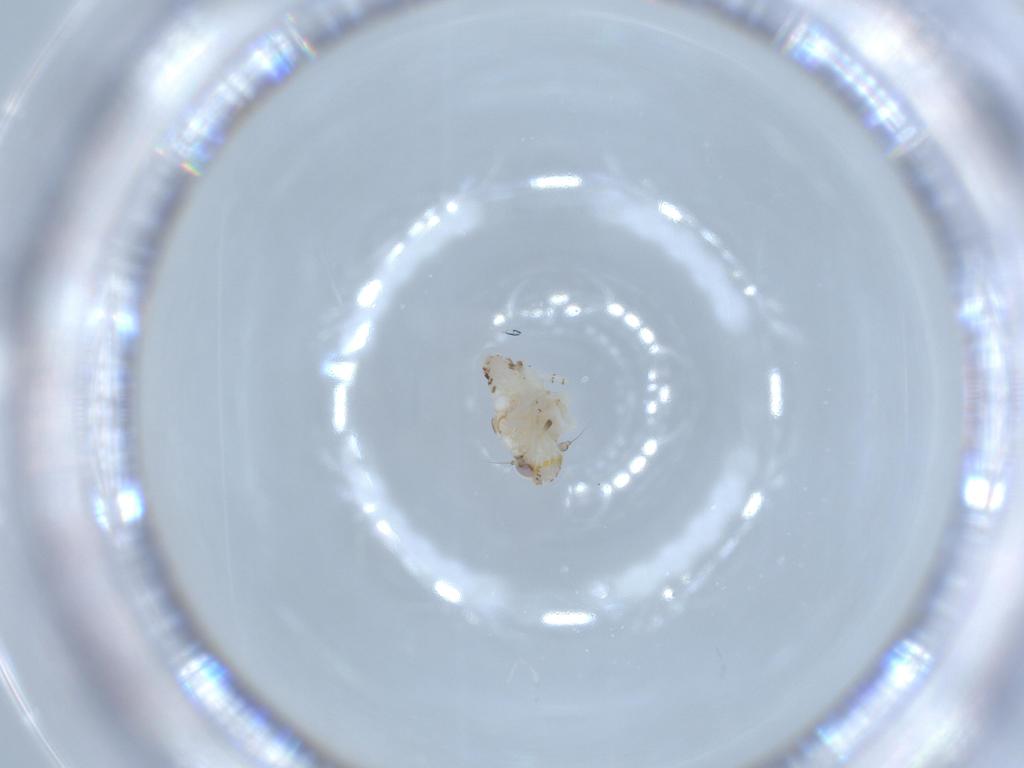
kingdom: Animalia
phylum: Arthropoda
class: Insecta
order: Hemiptera
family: Nogodinidae
